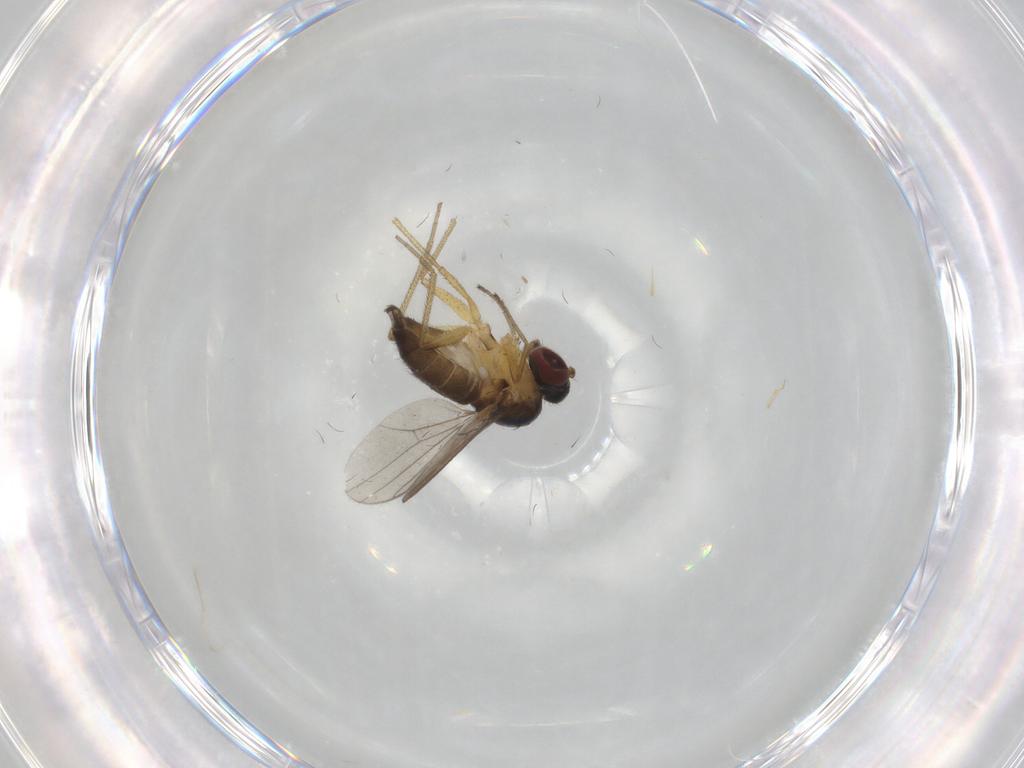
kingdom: Animalia
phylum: Arthropoda
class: Insecta
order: Diptera
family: Dolichopodidae
